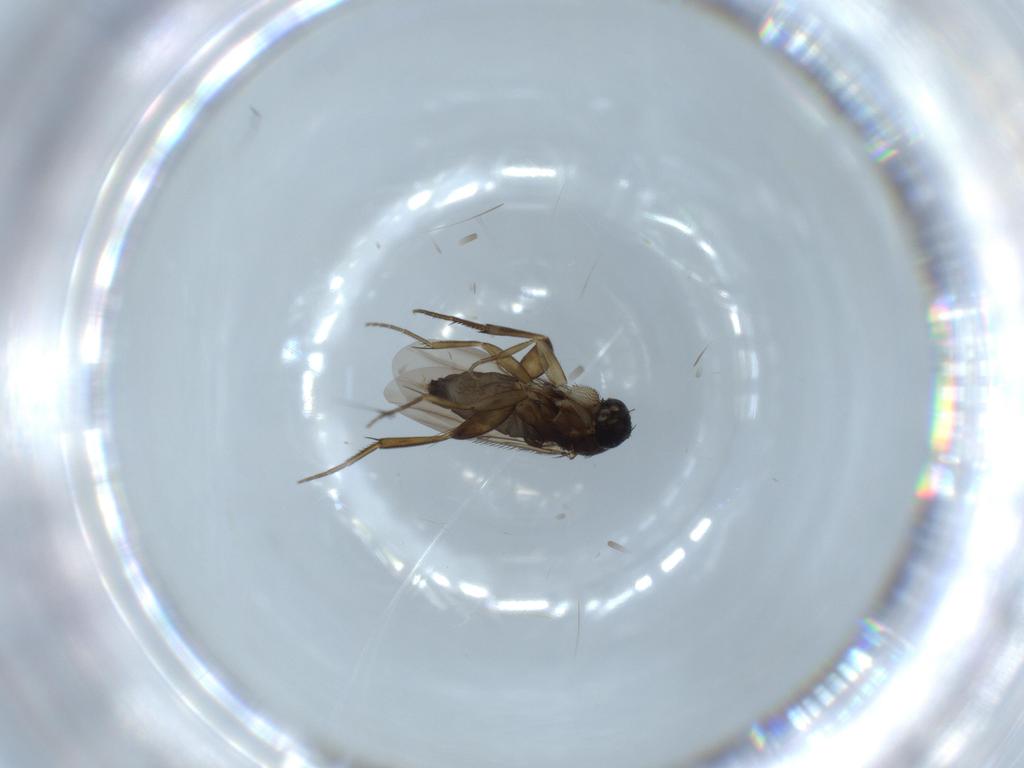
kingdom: Animalia
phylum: Arthropoda
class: Insecta
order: Diptera
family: Phoridae
